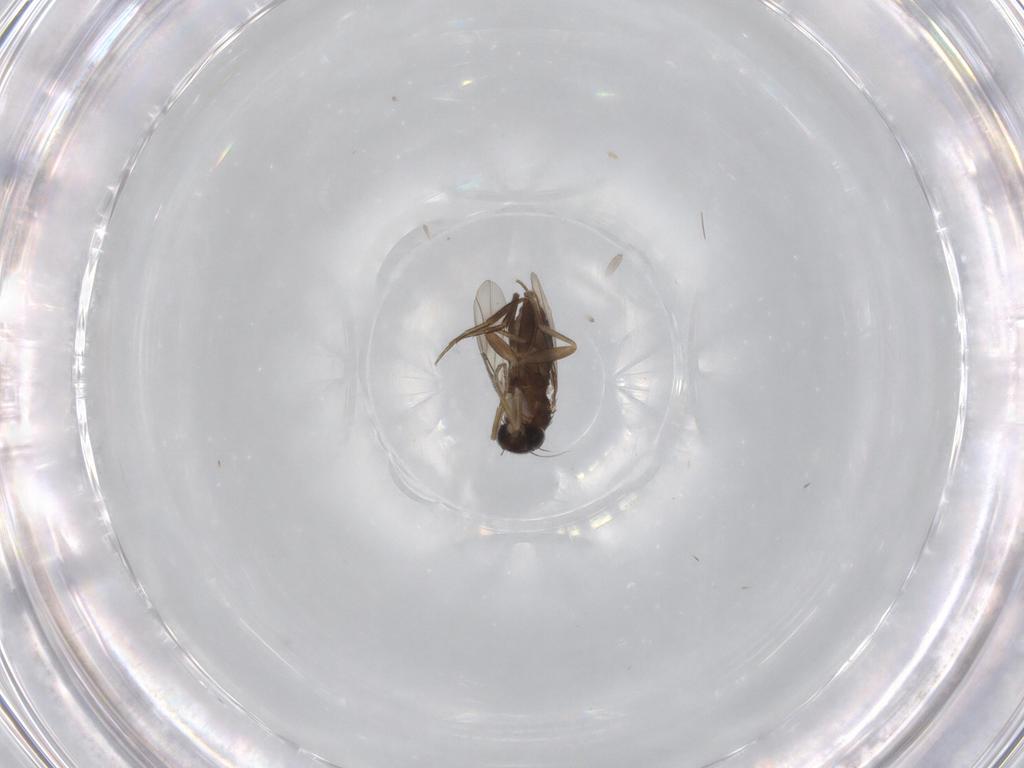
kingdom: Animalia
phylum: Arthropoda
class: Insecta
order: Diptera
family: Phoridae
